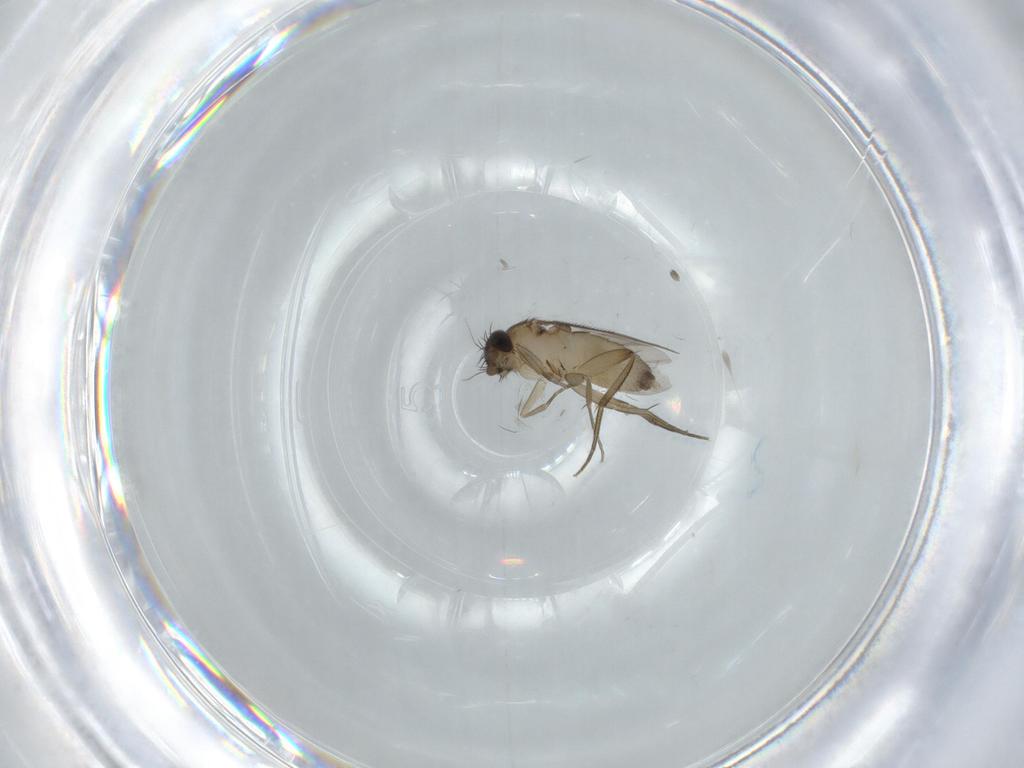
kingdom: Animalia
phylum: Arthropoda
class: Insecta
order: Diptera
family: Phoridae
